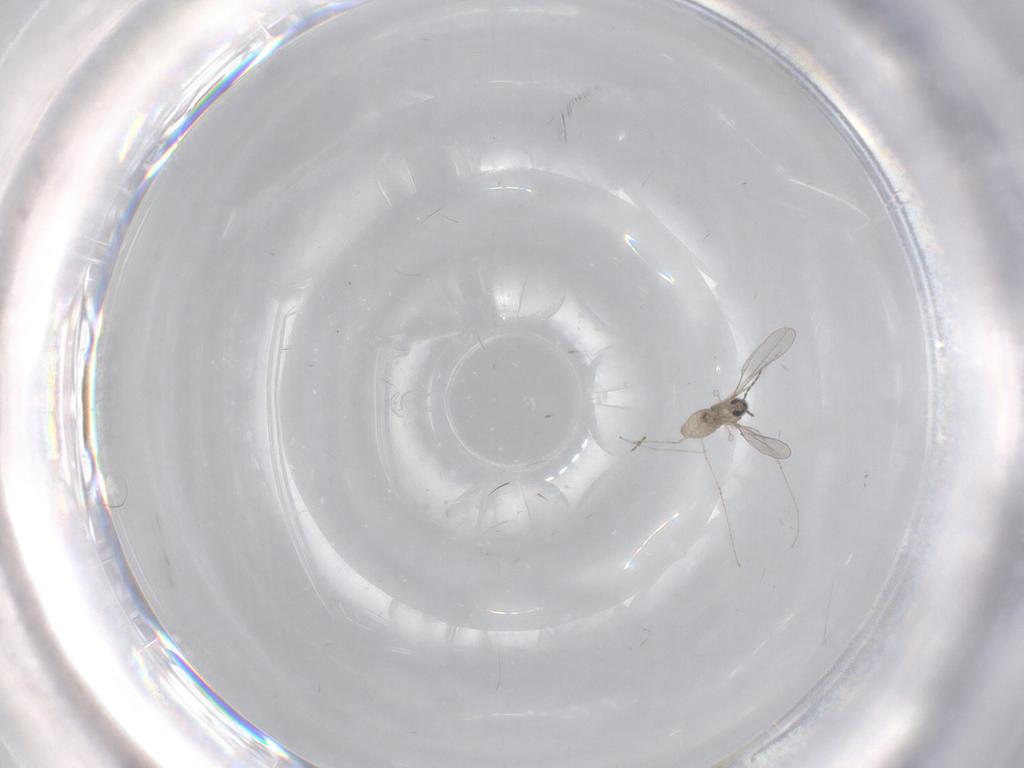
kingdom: Animalia
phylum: Arthropoda
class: Insecta
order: Diptera
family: Cecidomyiidae
